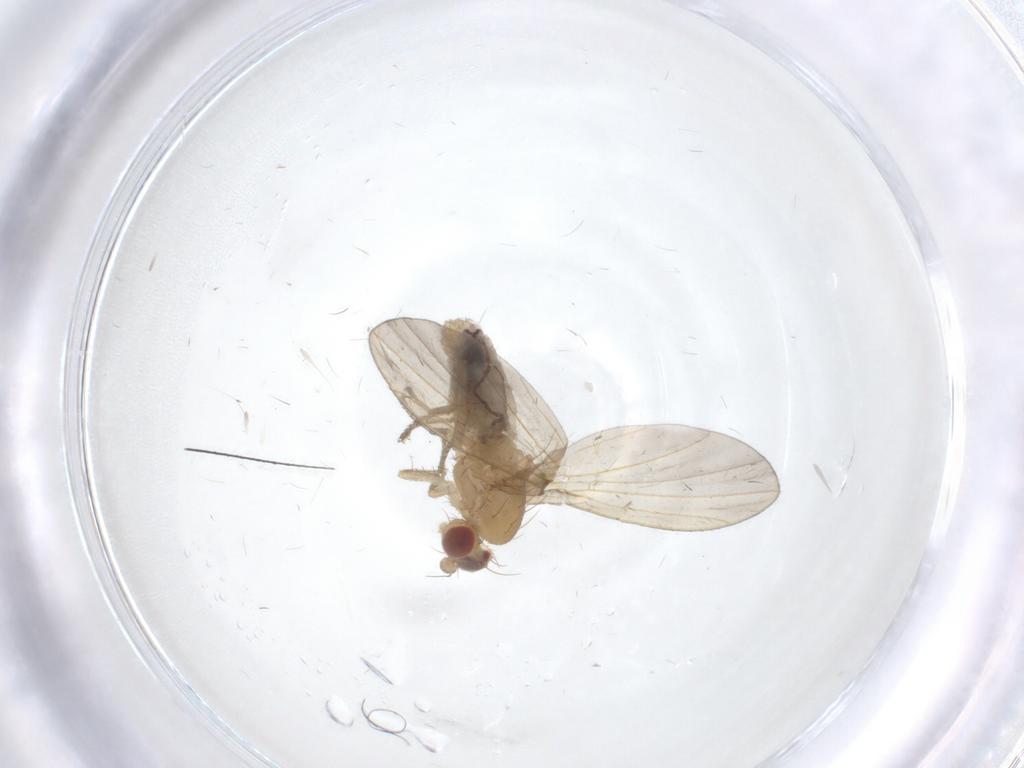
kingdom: Animalia
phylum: Arthropoda
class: Insecta
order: Diptera
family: Anthomyzidae
